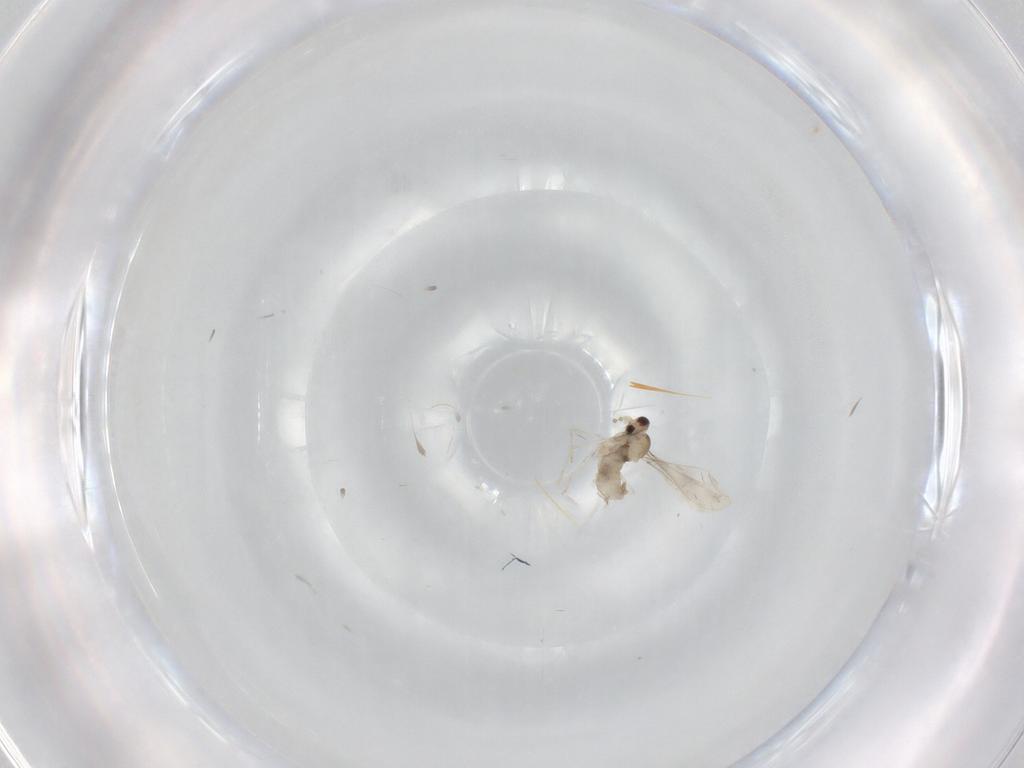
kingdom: Animalia
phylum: Arthropoda
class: Insecta
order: Diptera
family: Cecidomyiidae
